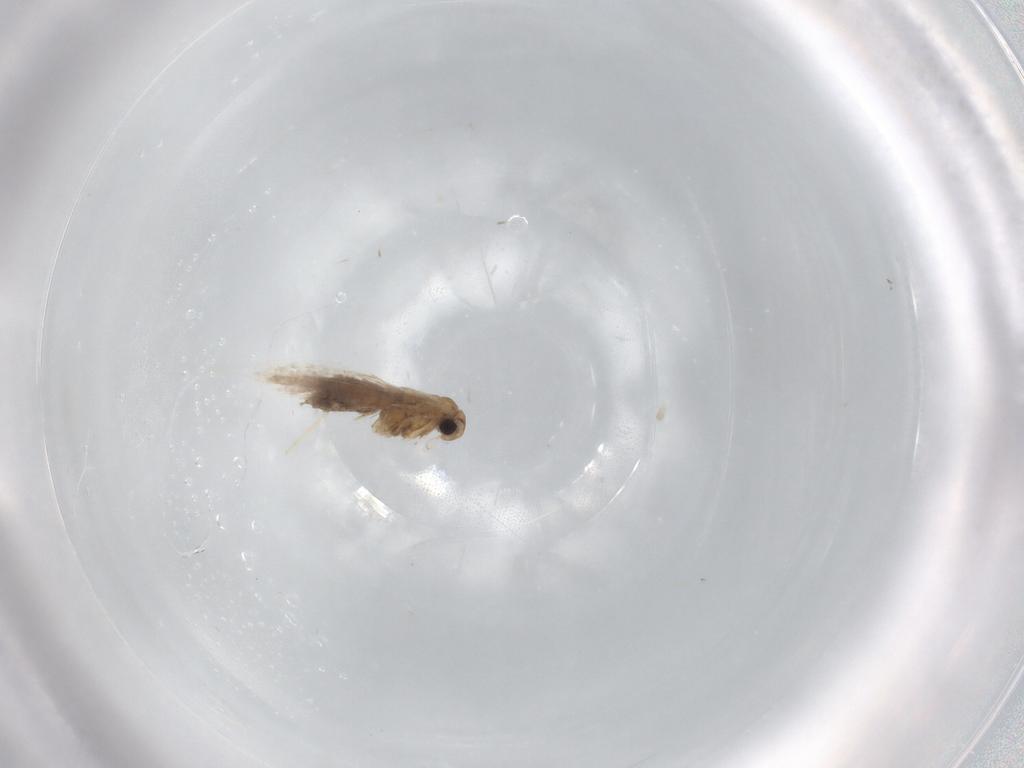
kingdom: Animalia
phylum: Arthropoda
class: Insecta
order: Lepidoptera
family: Gracillariidae
